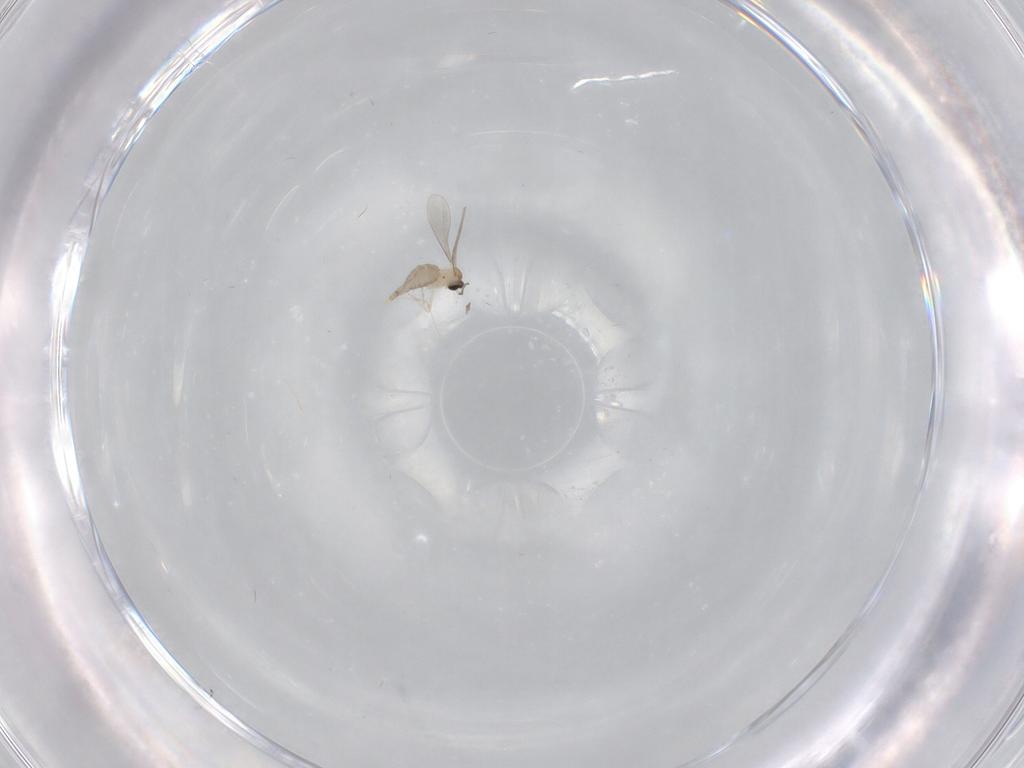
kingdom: Animalia
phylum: Arthropoda
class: Insecta
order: Diptera
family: Chironomidae
